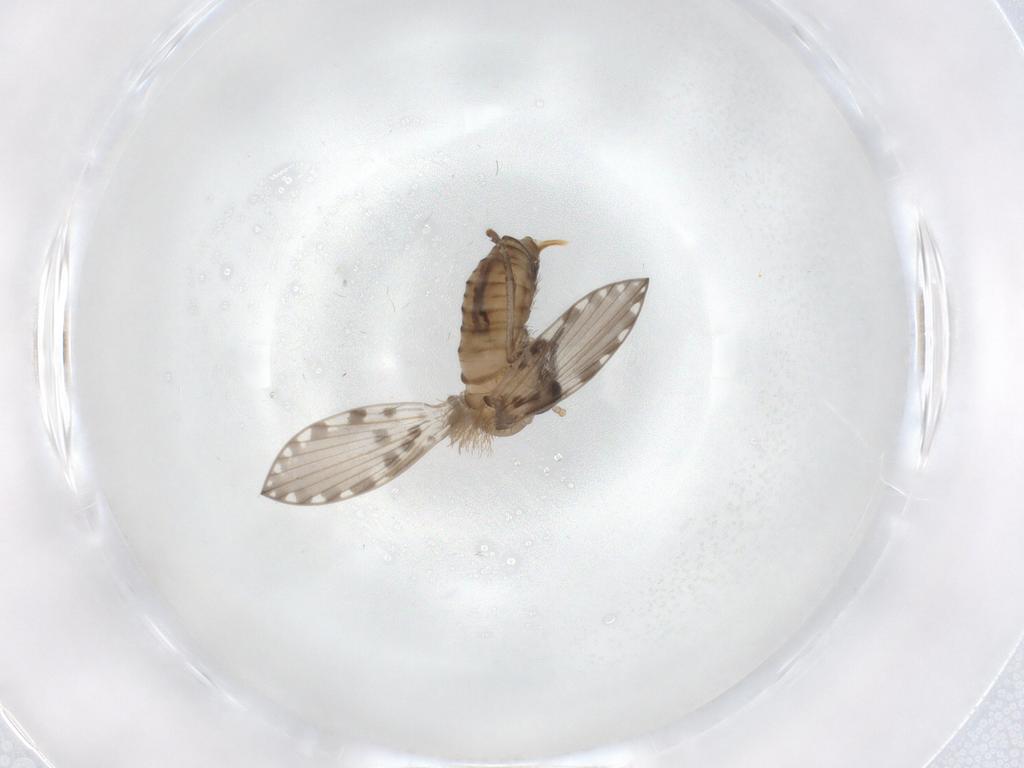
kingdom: Animalia
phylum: Arthropoda
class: Insecta
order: Diptera
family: Psychodidae
